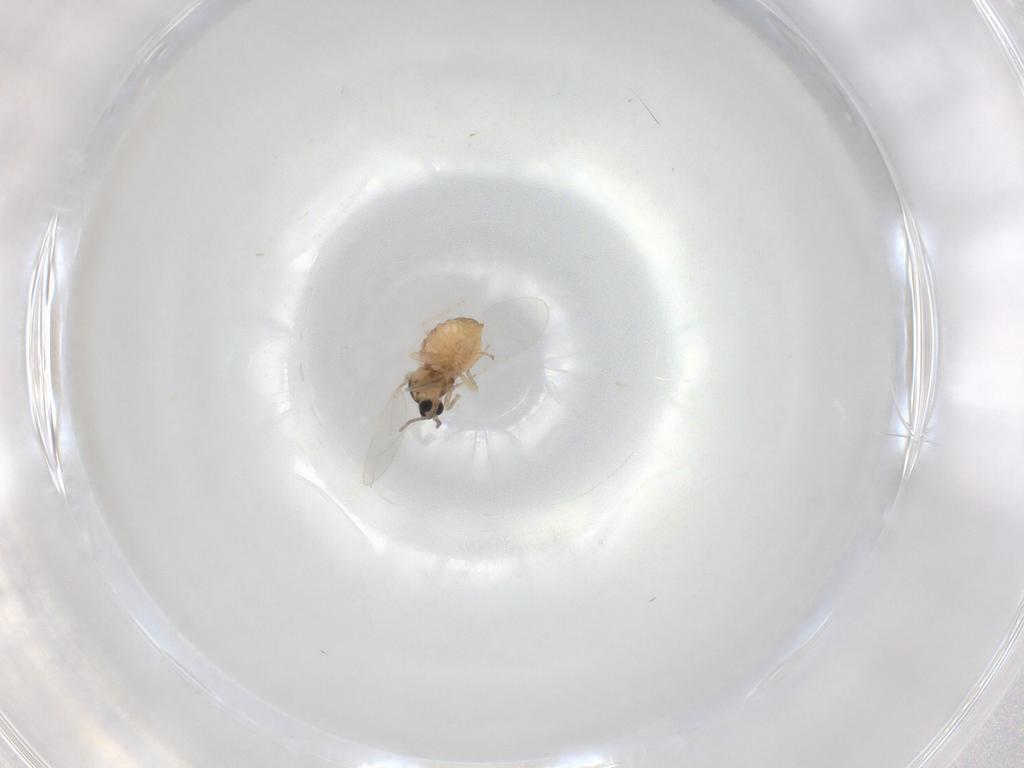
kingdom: Animalia
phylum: Arthropoda
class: Insecta
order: Diptera
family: Cecidomyiidae
